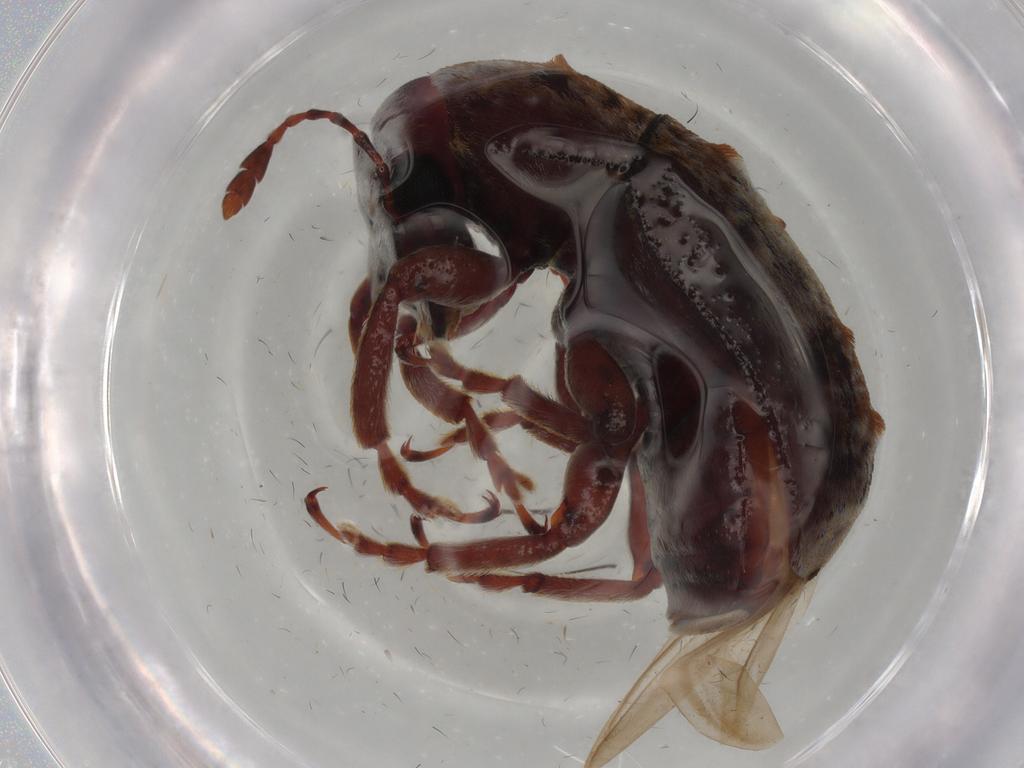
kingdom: Animalia
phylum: Arthropoda
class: Insecta
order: Coleoptera
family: Anthribidae
